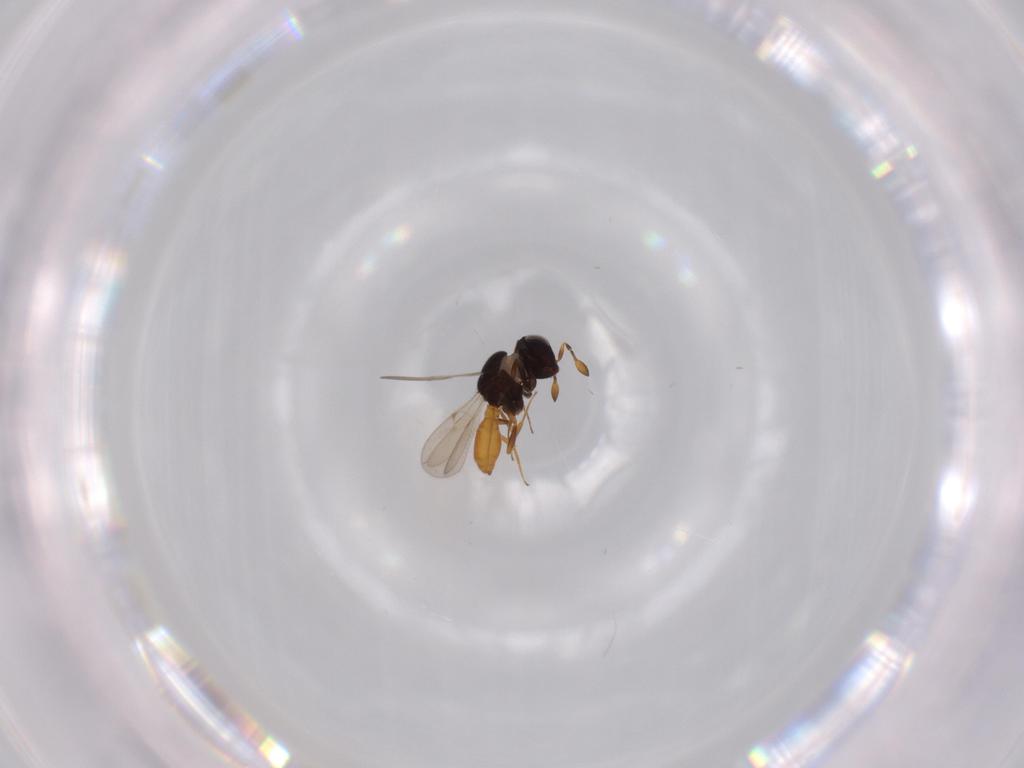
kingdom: Animalia
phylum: Arthropoda
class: Insecta
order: Hymenoptera
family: Scelionidae
